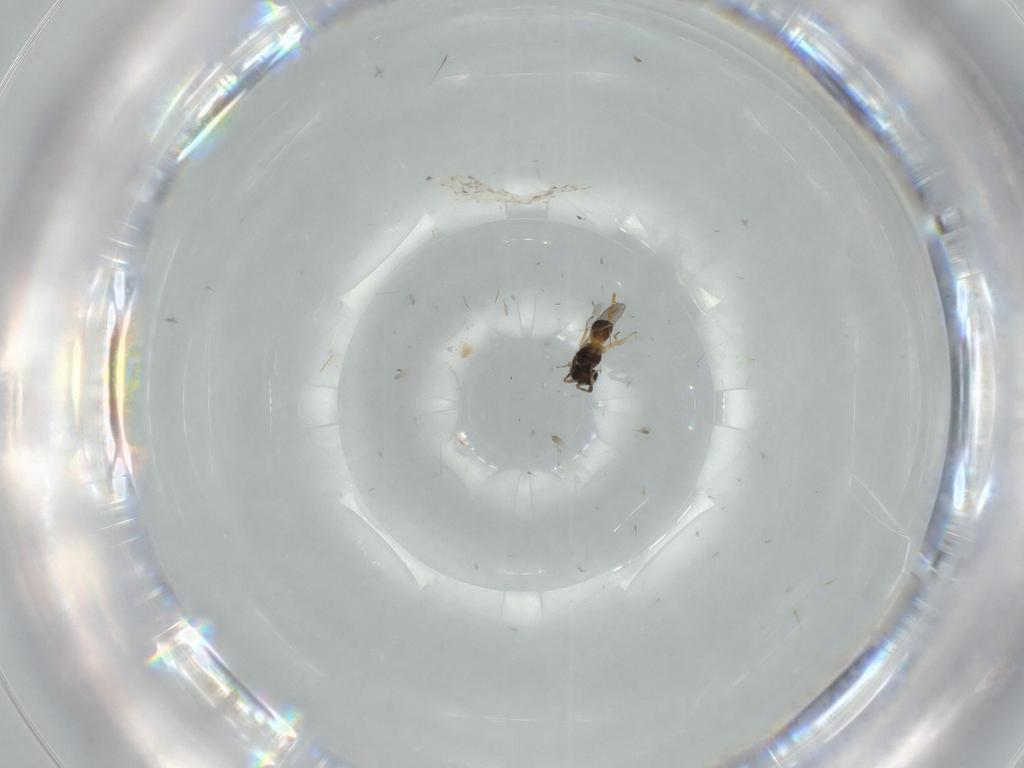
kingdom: Animalia
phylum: Arthropoda
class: Insecta
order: Hymenoptera
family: Platygastridae
